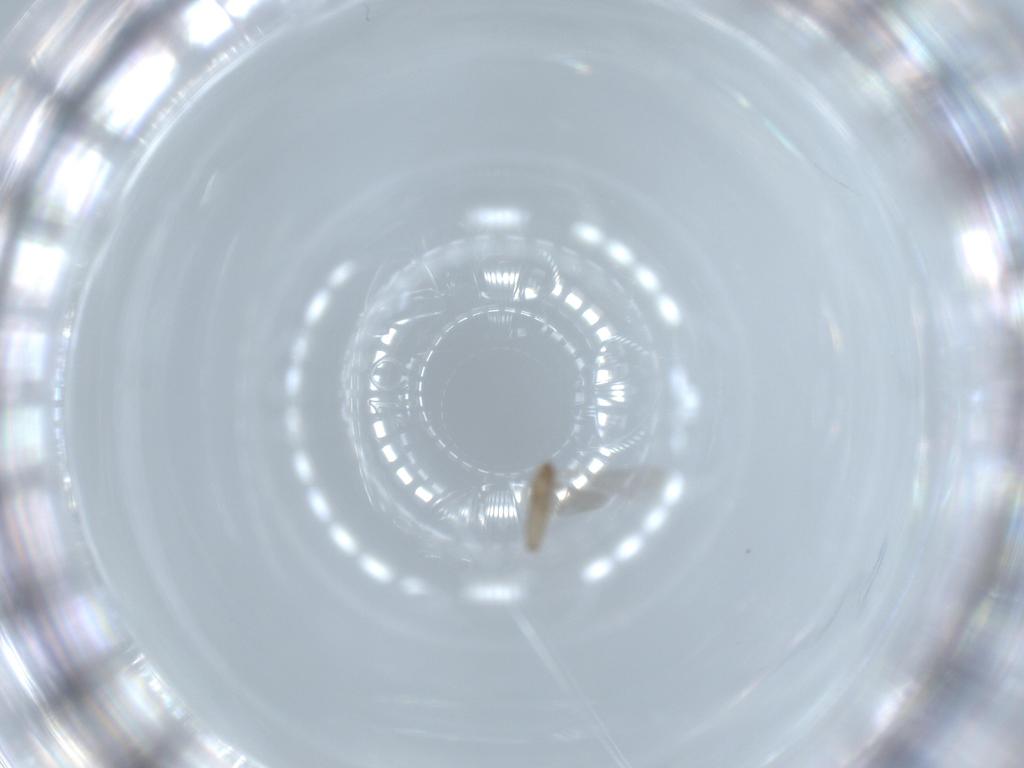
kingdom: Animalia
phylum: Arthropoda
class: Insecta
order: Diptera
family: Cecidomyiidae
